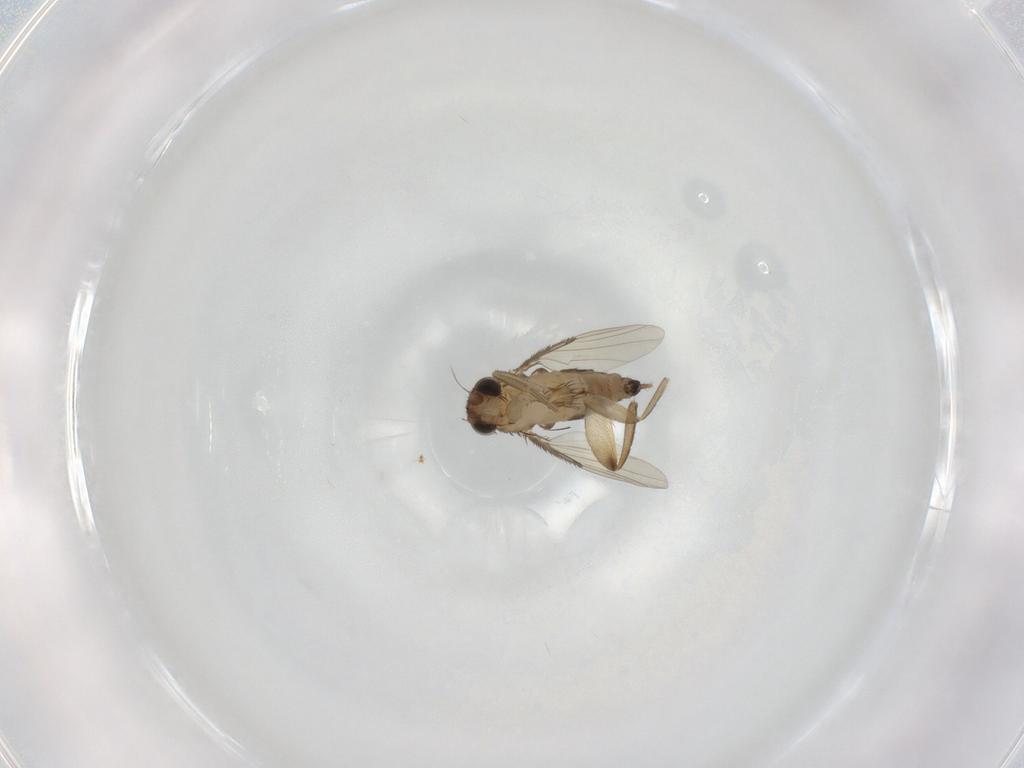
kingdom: Animalia
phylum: Arthropoda
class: Insecta
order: Diptera
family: Phoridae
